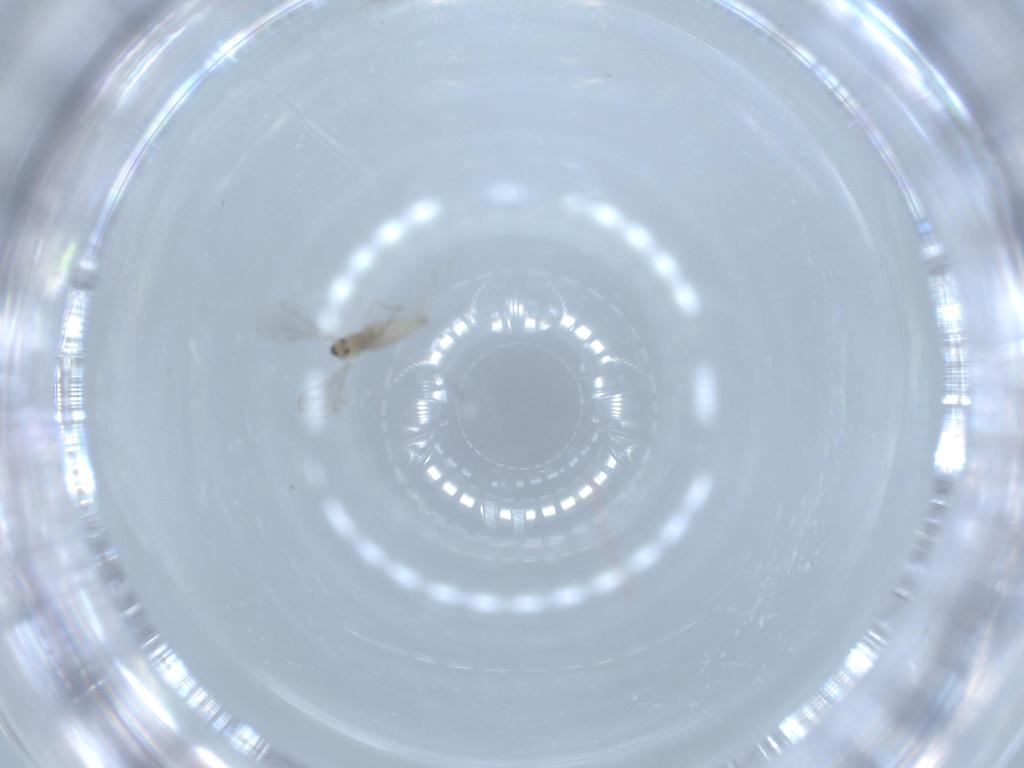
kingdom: Animalia
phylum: Arthropoda
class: Insecta
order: Diptera
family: Cecidomyiidae
